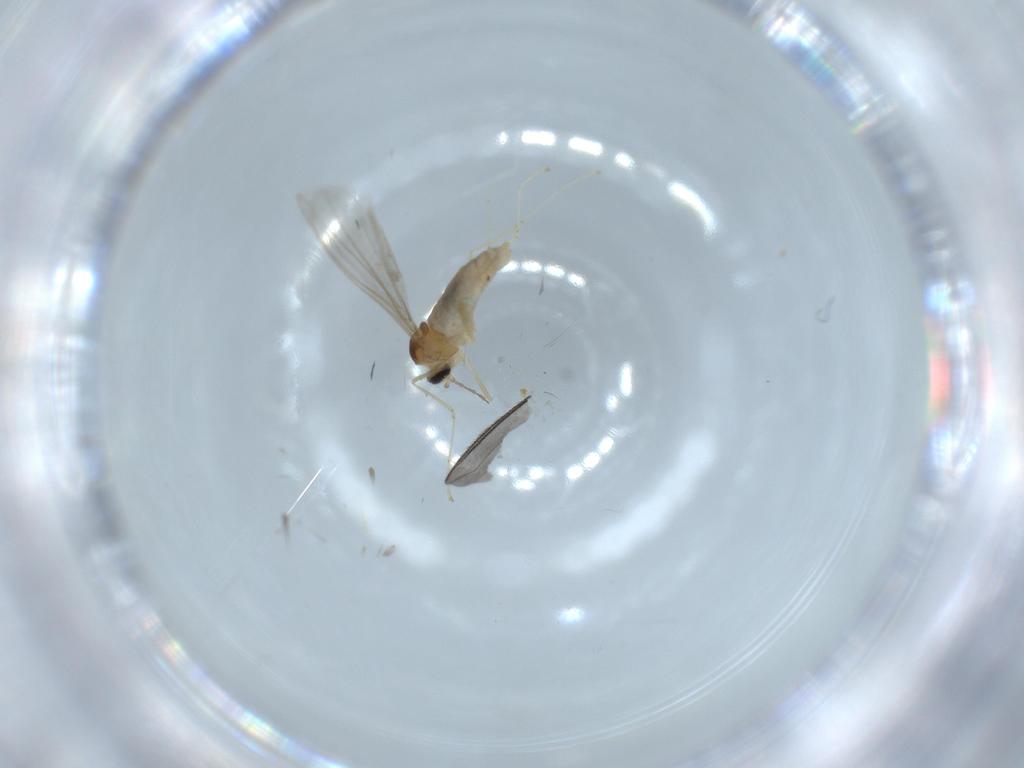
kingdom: Animalia
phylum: Arthropoda
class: Insecta
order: Diptera
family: Cecidomyiidae
